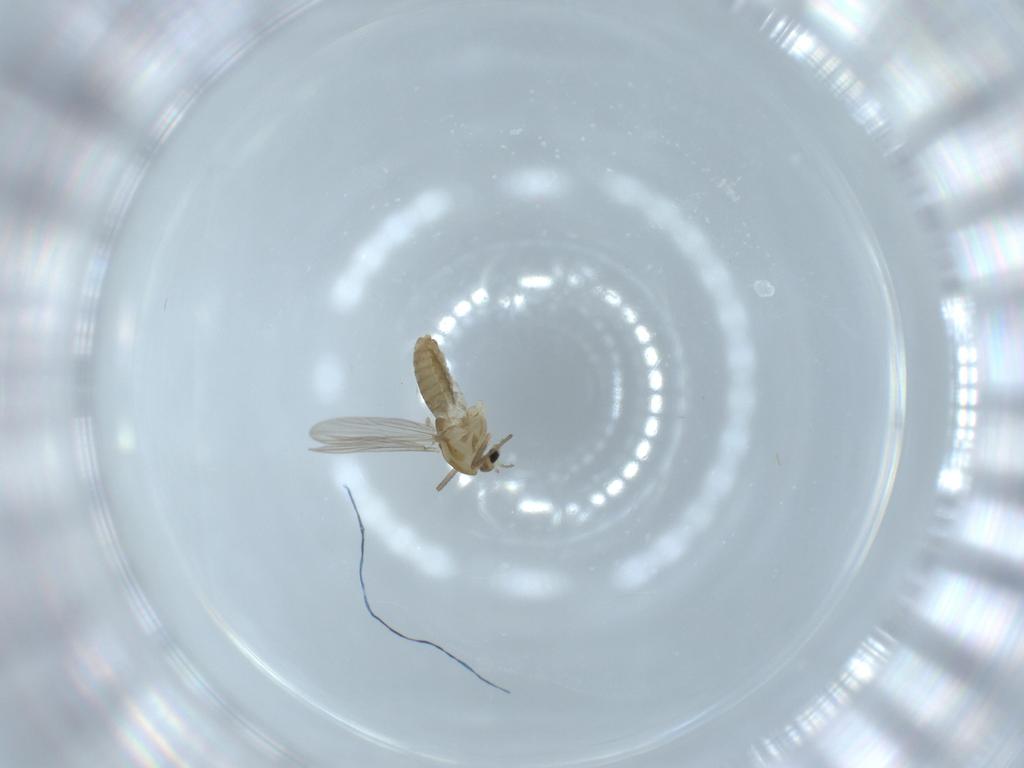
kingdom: Animalia
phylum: Arthropoda
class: Insecta
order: Diptera
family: Chironomidae
